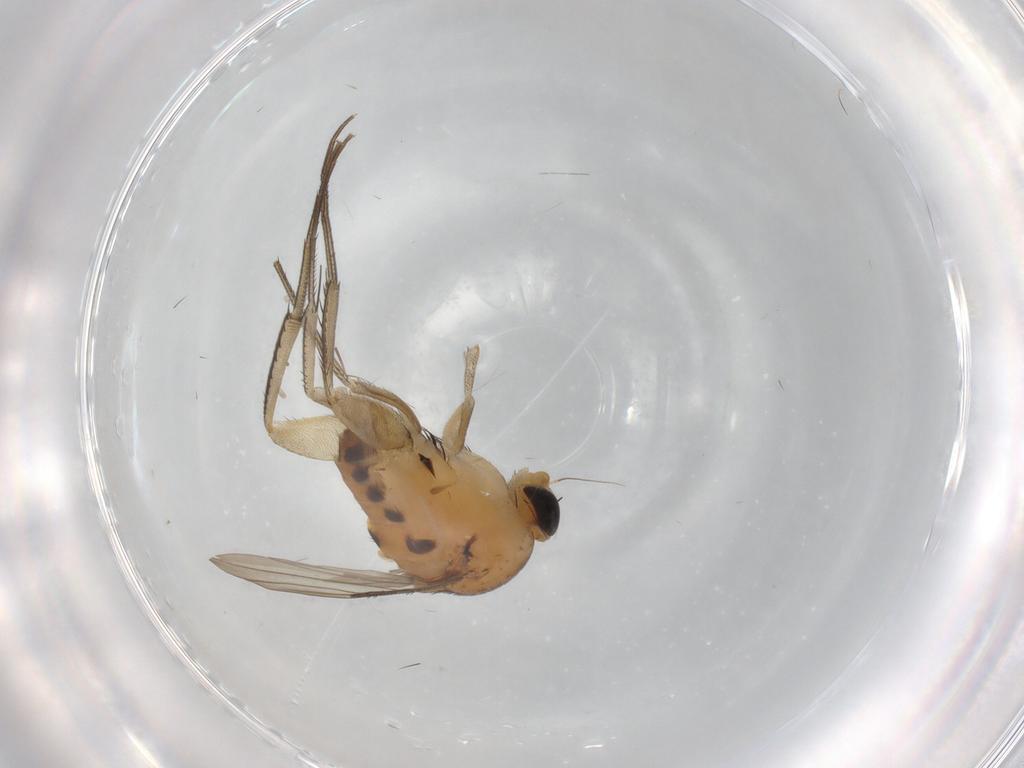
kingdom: Animalia
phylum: Arthropoda
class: Insecta
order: Diptera
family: Phoridae
